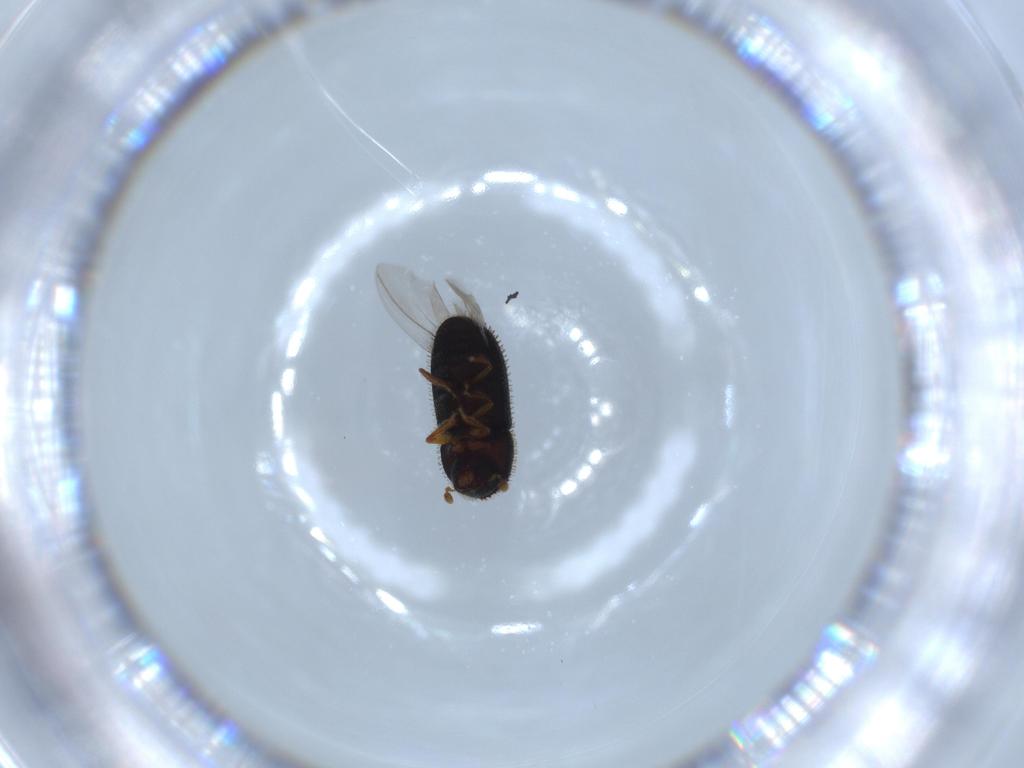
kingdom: Animalia
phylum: Arthropoda
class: Insecta
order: Coleoptera
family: Curculionidae
